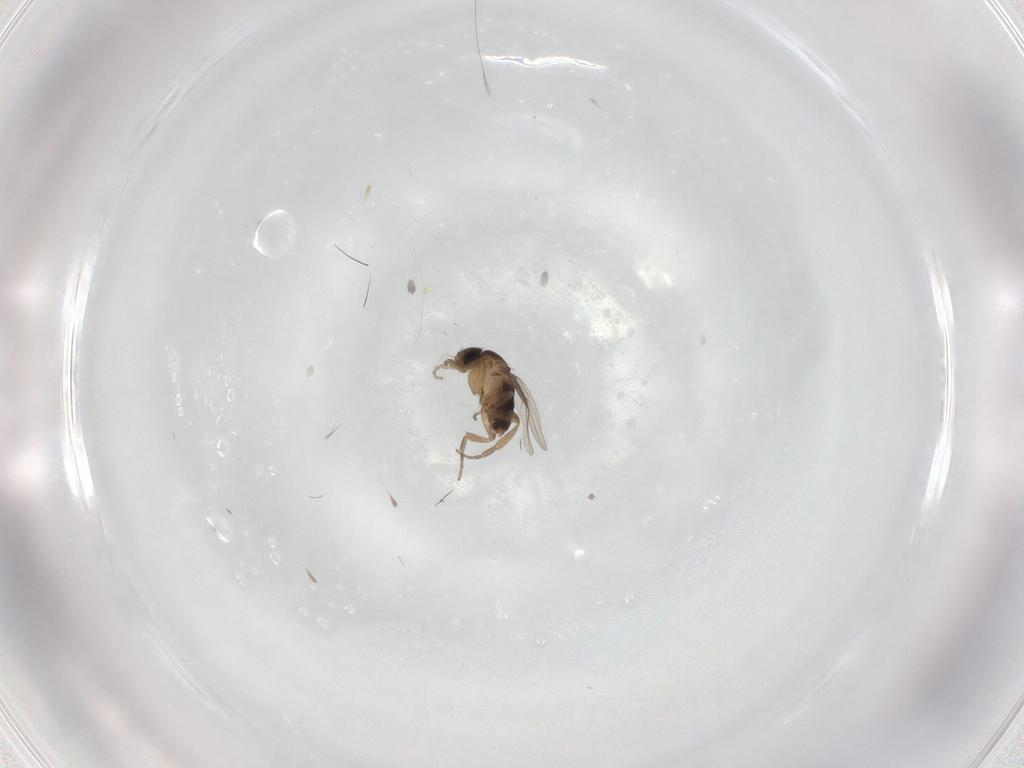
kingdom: Animalia
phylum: Arthropoda
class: Insecta
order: Diptera
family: Phoridae
